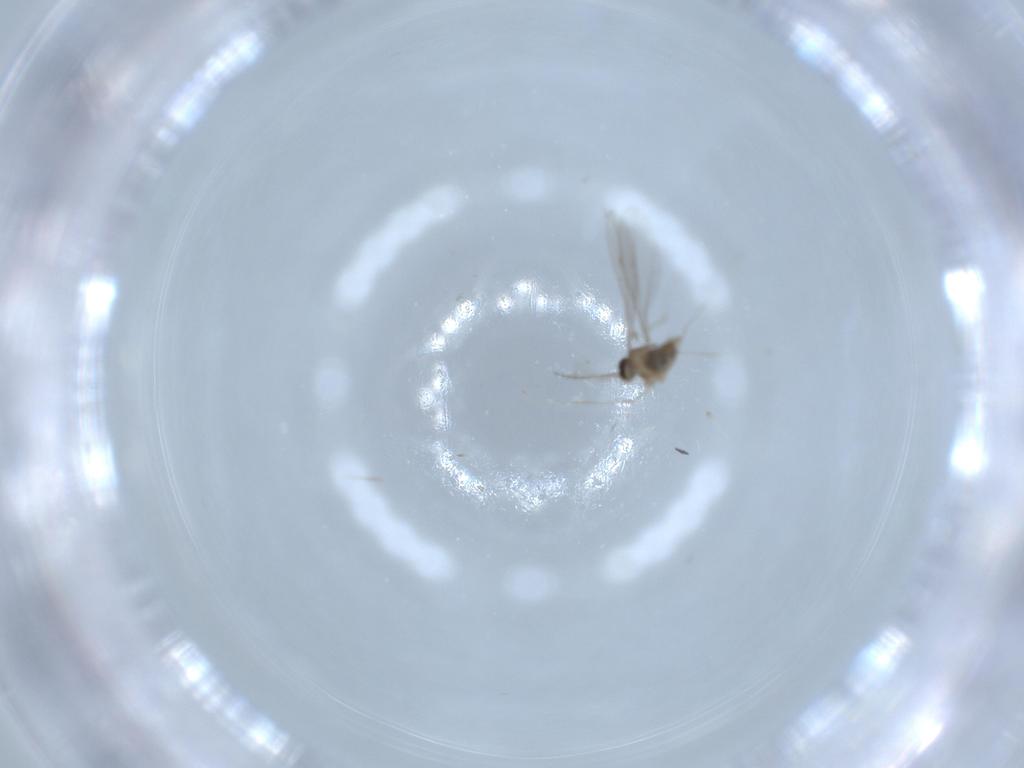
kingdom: Animalia
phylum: Arthropoda
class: Insecta
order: Diptera
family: Cecidomyiidae
